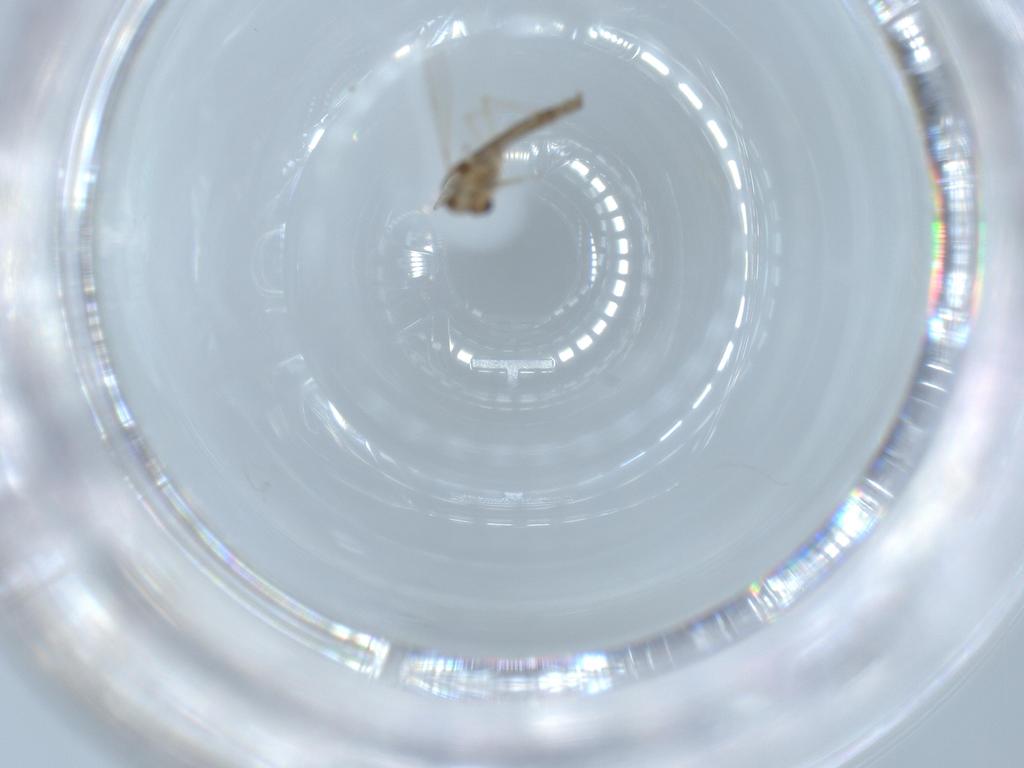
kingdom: Animalia
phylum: Arthropoda
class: Insecta
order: Diptera
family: Chironomidae
